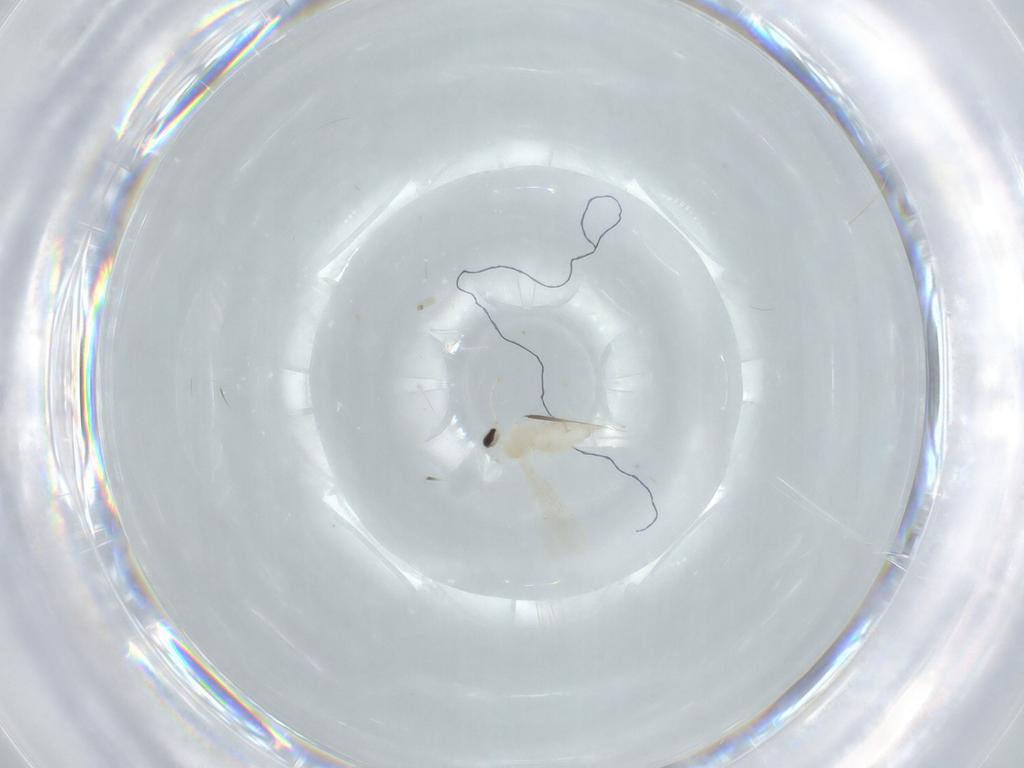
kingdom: Animalia
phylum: Arthropoda
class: Insecta
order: Diptera
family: Cecidomyiidae
